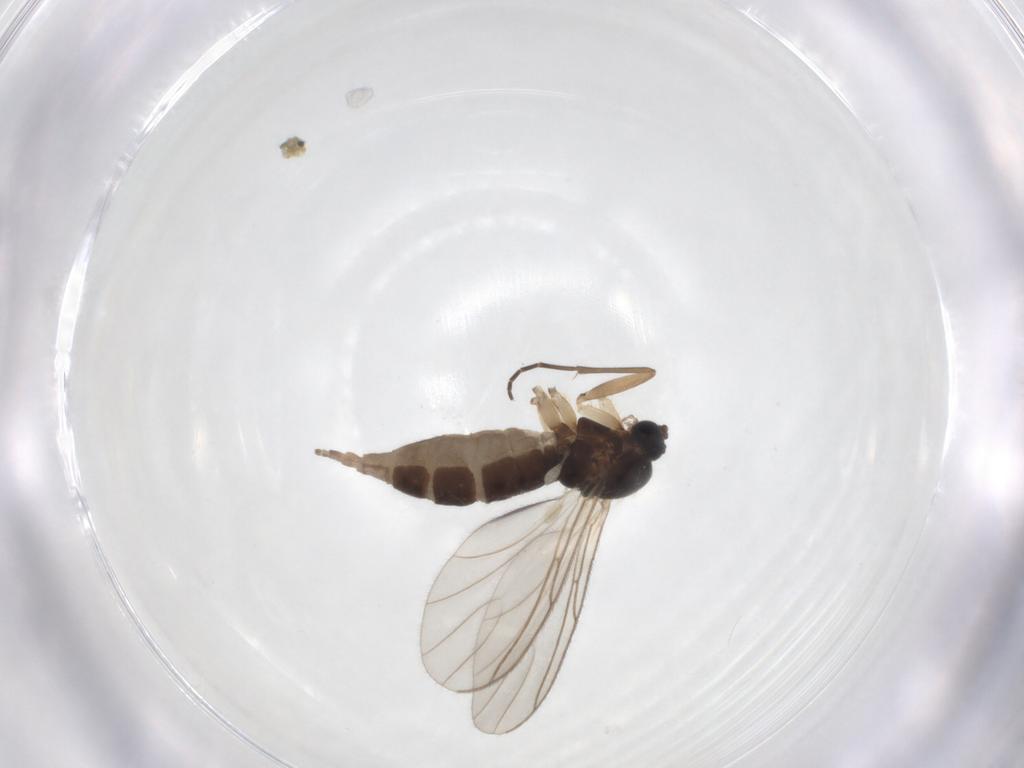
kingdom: Animalia
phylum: Arthropoda
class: Insecta
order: Diptera
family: Sciaridae
